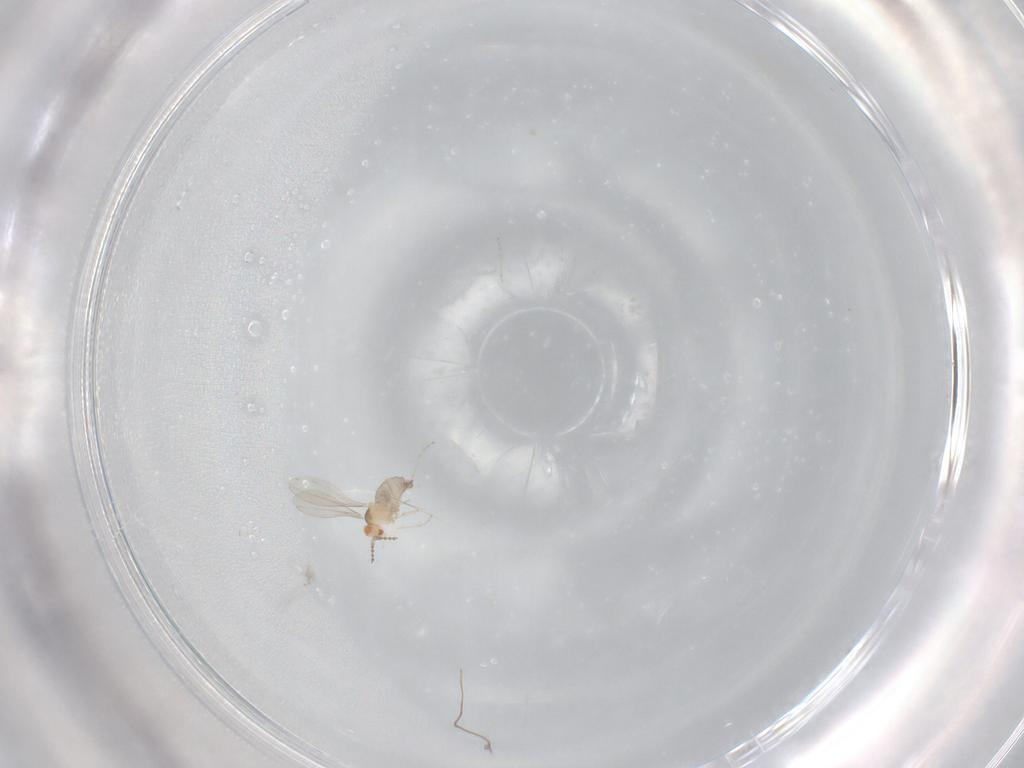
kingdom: Animalia
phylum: Arthropoda
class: Insecta
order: Diptera
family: Cecidomyiidae
